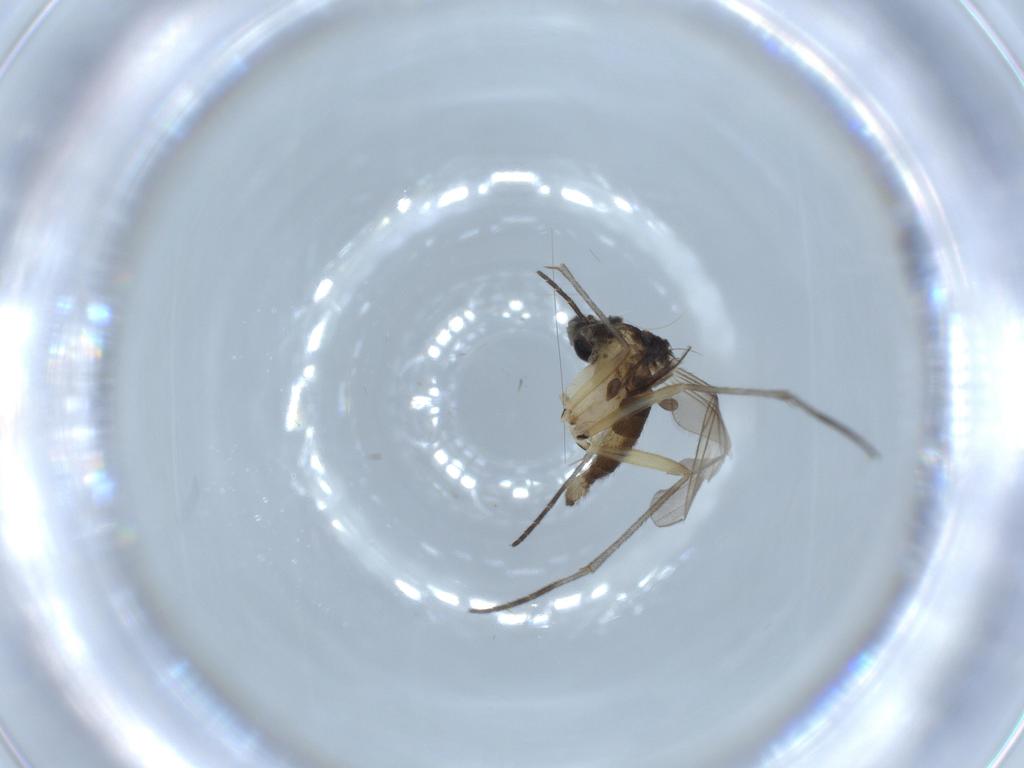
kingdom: Animalia
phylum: Arthropoda
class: Insecta
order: Diptera
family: Sciaridae
